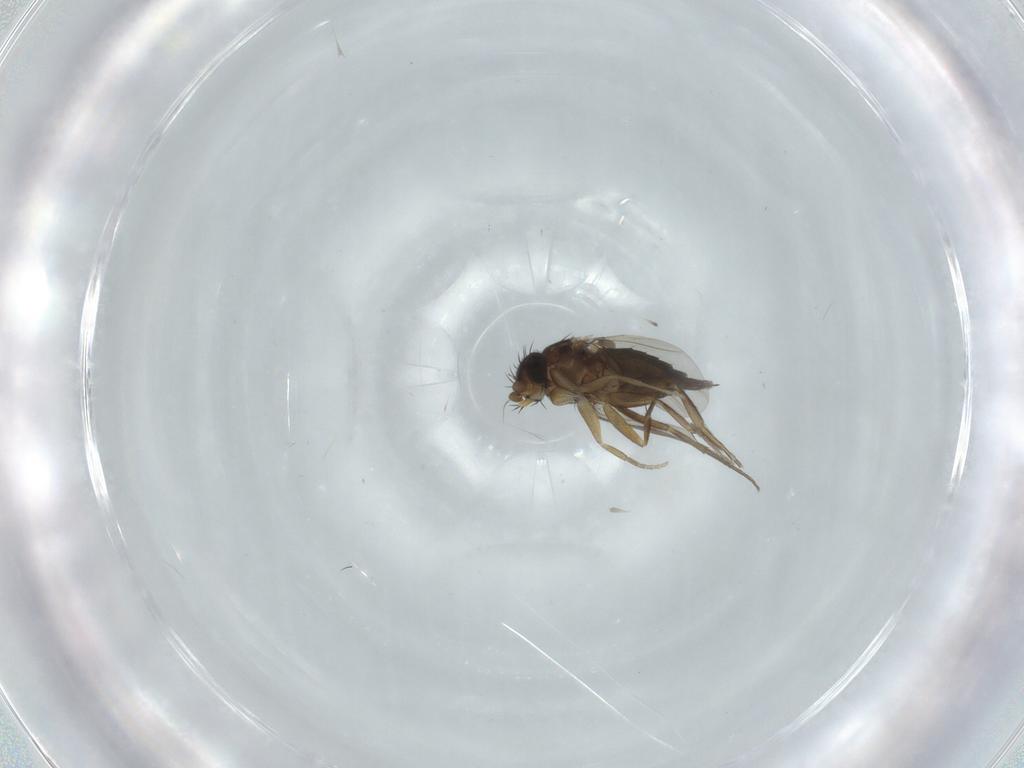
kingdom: Animalia
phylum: Arthropoda
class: Insecta
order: Diptera
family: Phoridae
